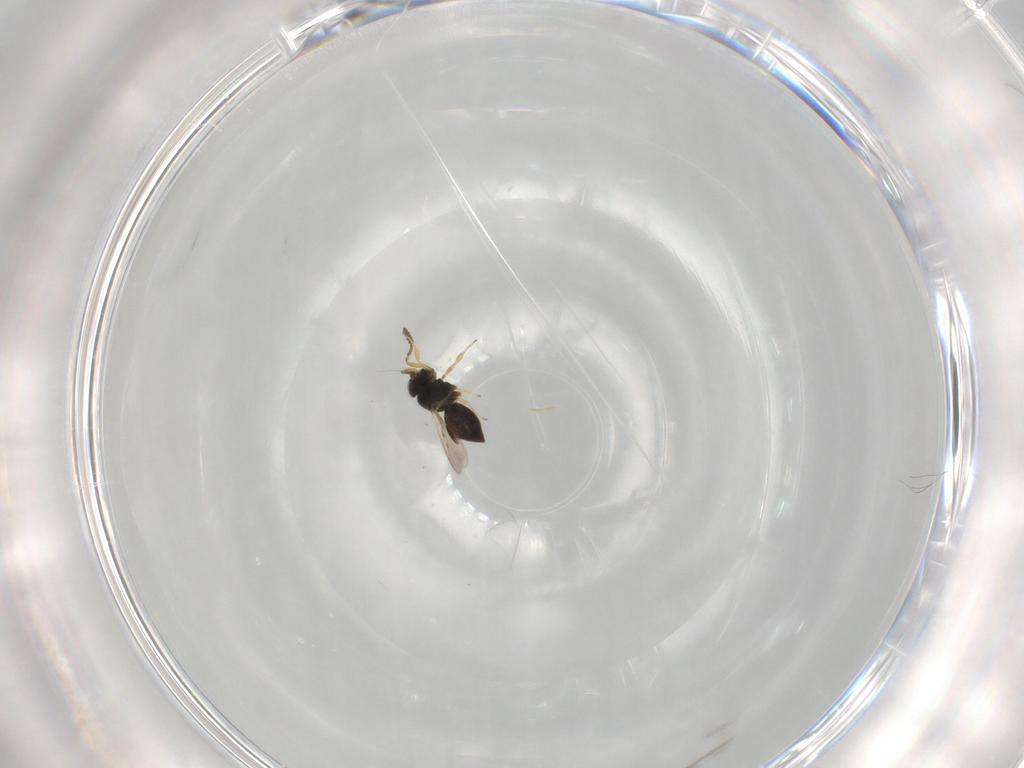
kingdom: Animalia
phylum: Arthropoda
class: Insecta
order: Hymenoptera
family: Scelionidae
